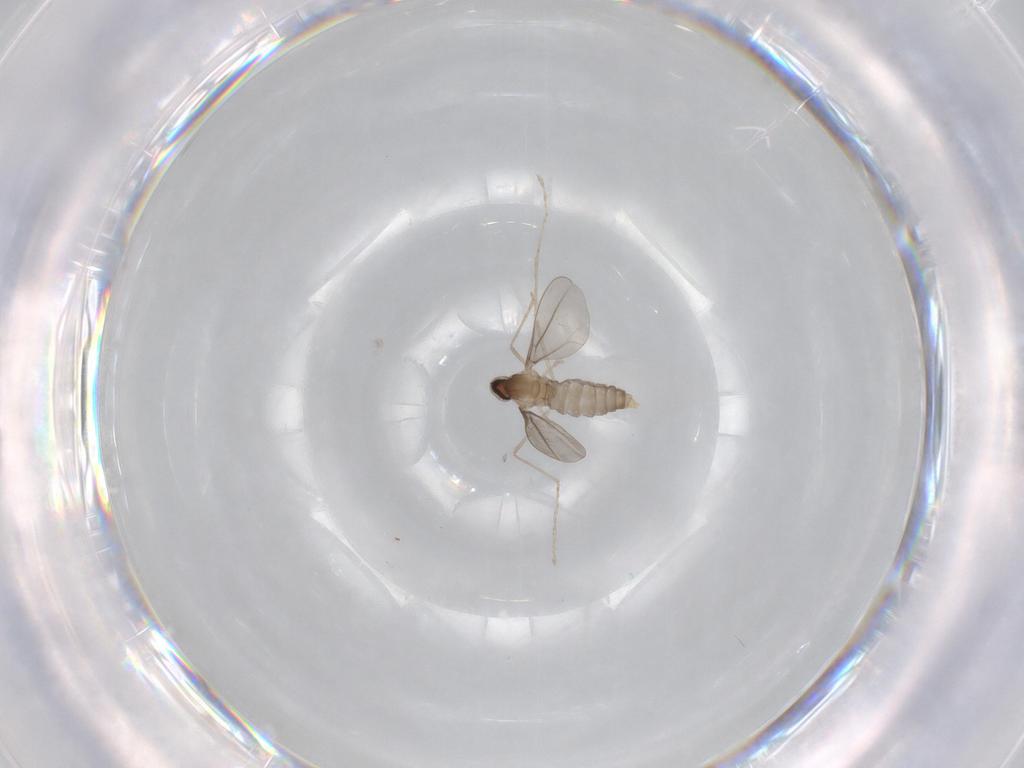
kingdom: Animalia
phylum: Arthropoda
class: Insecta
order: Diptera
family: Cecidomyiidae
